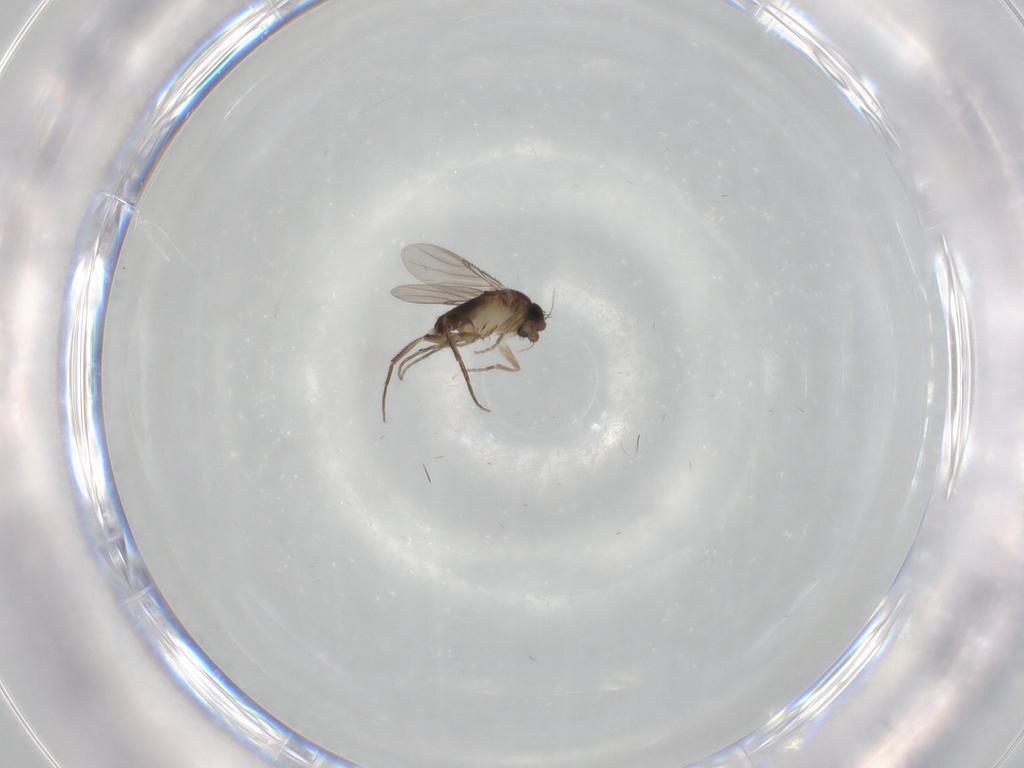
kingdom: Animalia
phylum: Arthropoda
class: Insecta
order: Diptera
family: Phoridae
